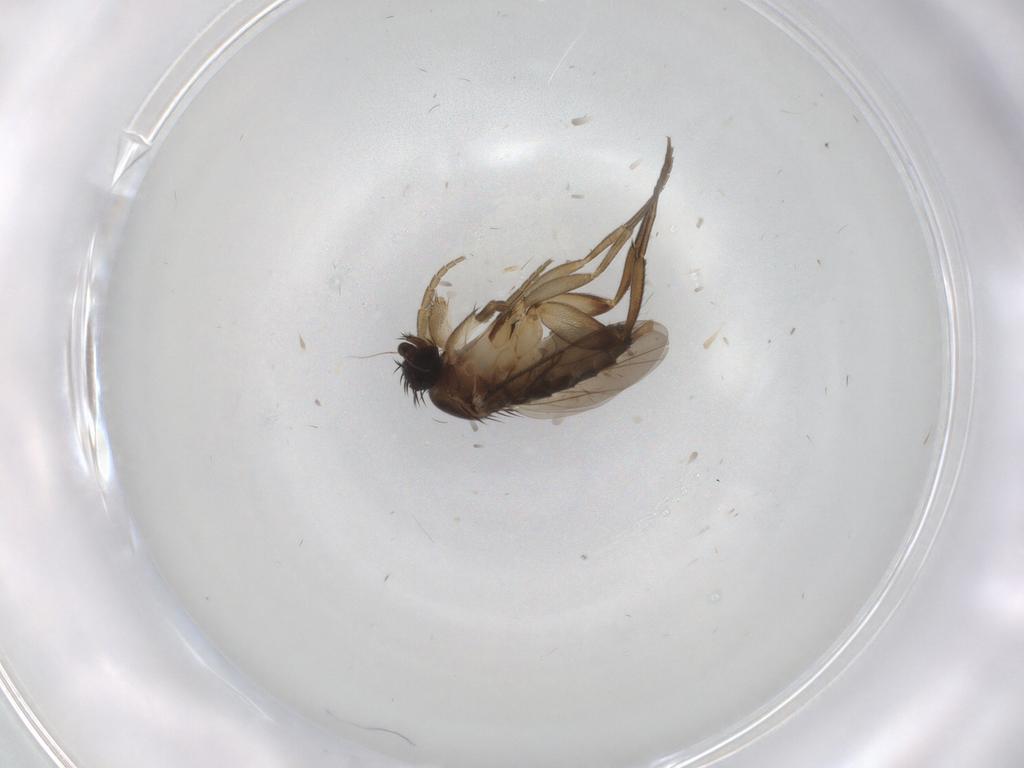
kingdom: Animalia
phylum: Arthropoda
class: Insecta
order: Diptera
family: Phoridae
